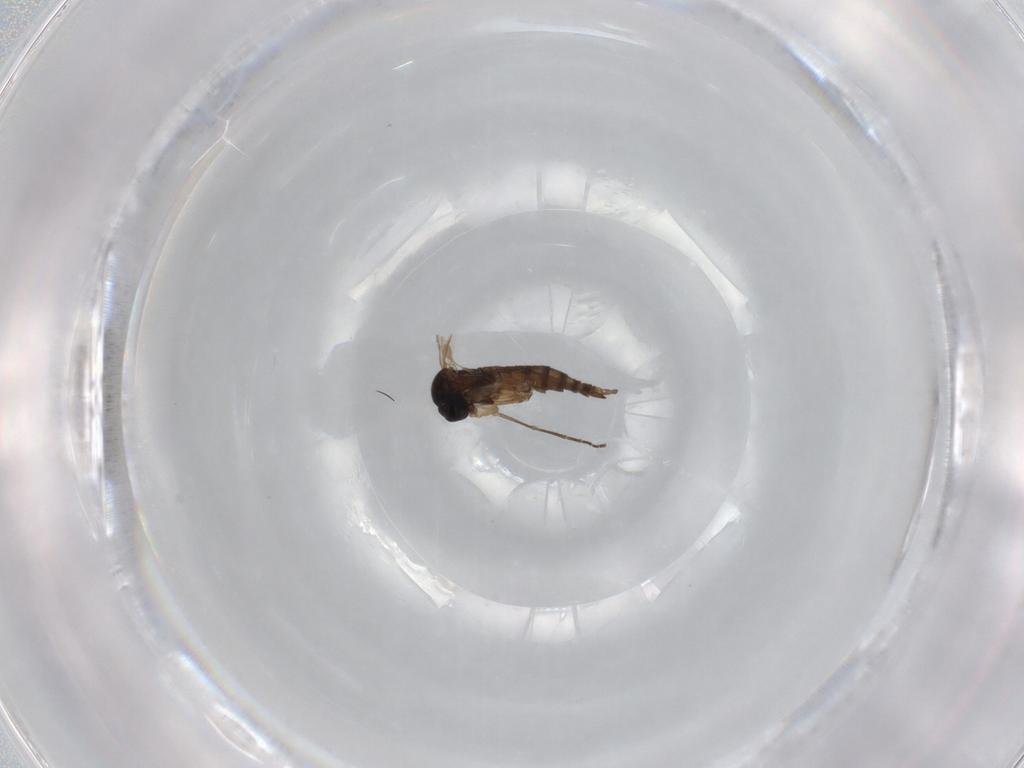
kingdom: Animalia
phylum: Arthropoda
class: Insecta
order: Diptera
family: Sciaridae
